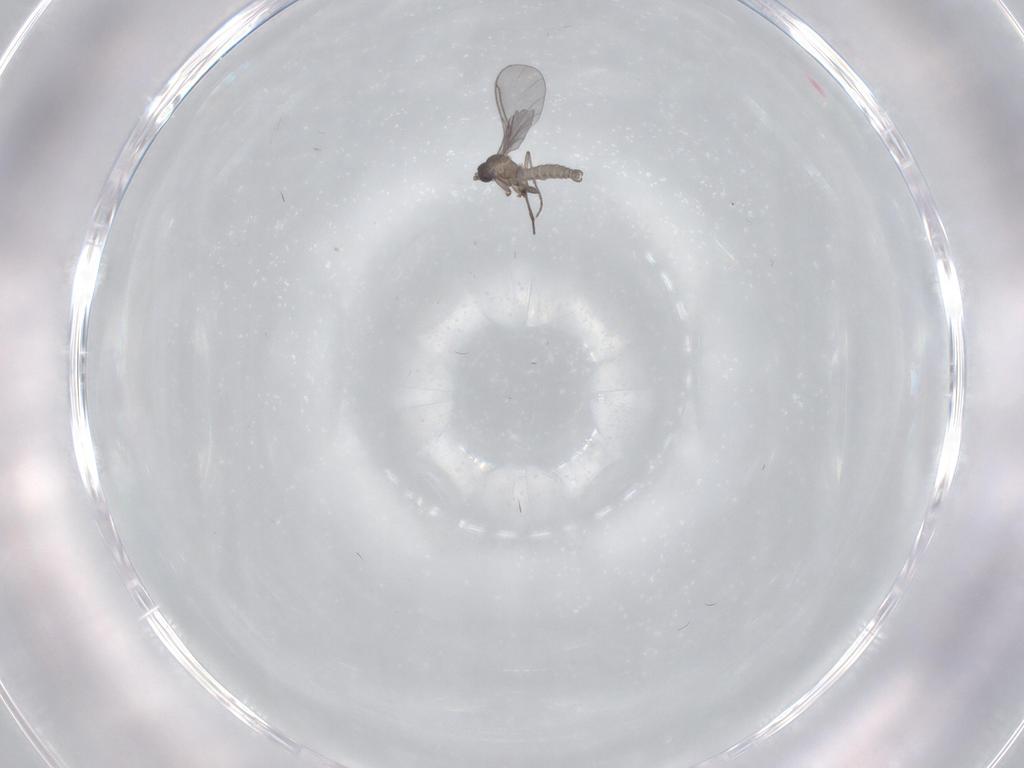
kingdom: Animalia
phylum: Arthropoda
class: Insecta
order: Diptera
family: Sciaridae
